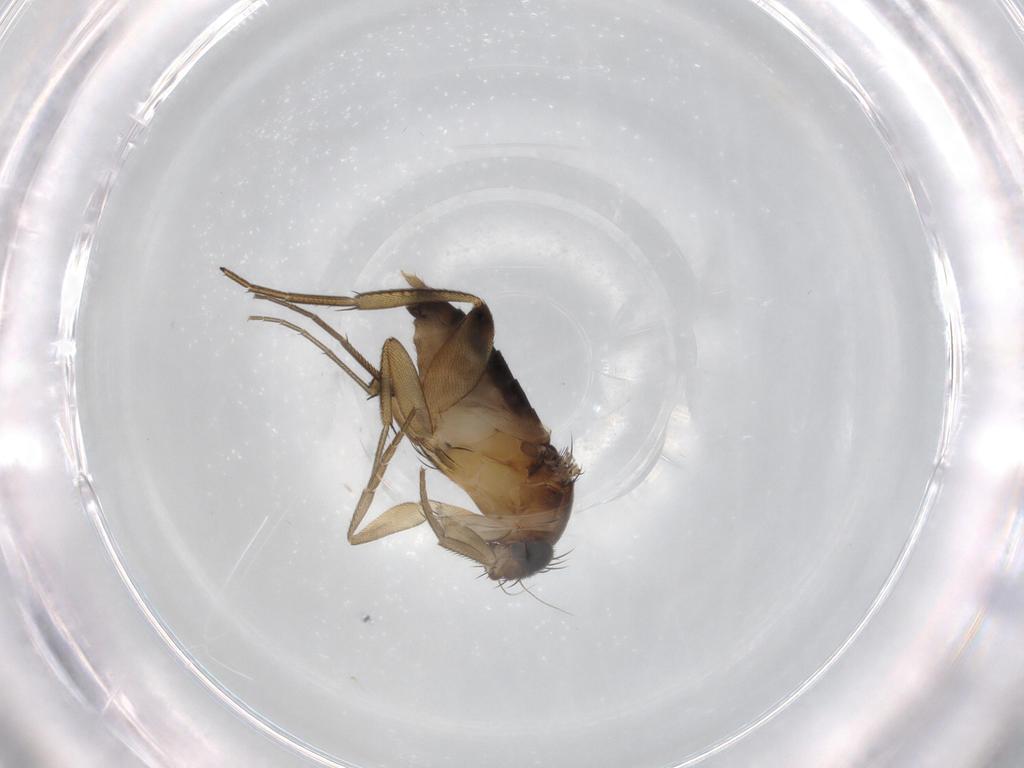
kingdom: Animalia
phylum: Arthropoda
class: Insecta
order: Diptera
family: Phoridae
